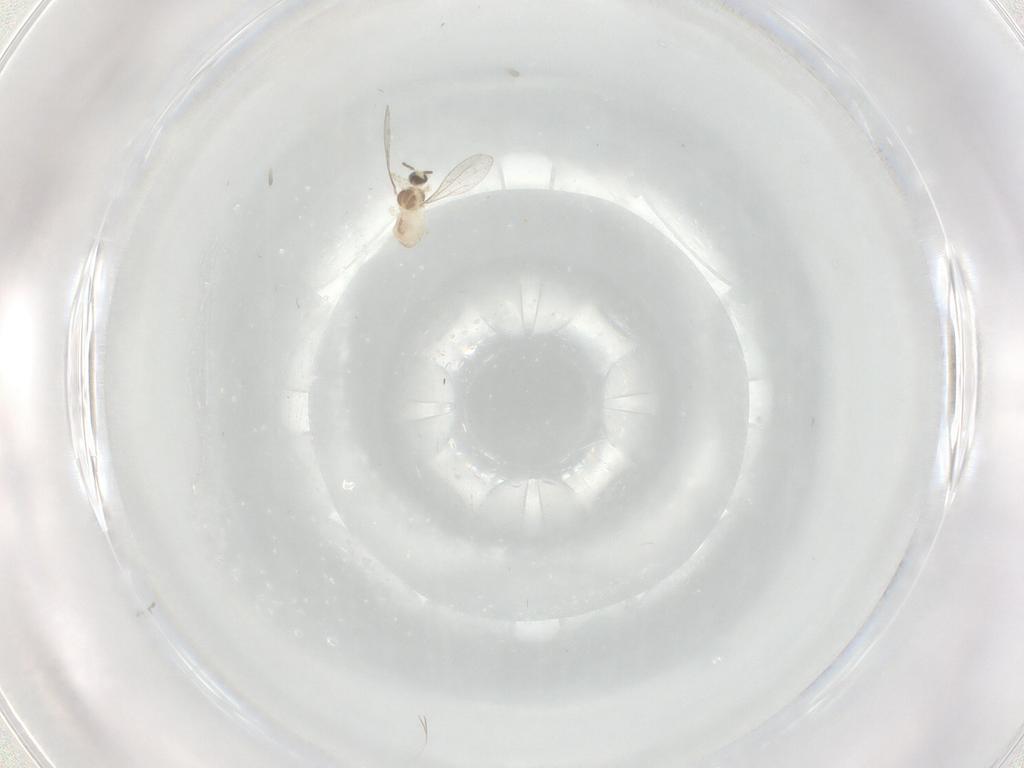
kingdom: Animalia
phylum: Arthropoda
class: Insecta
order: Diptera
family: Cecidomyiidae
